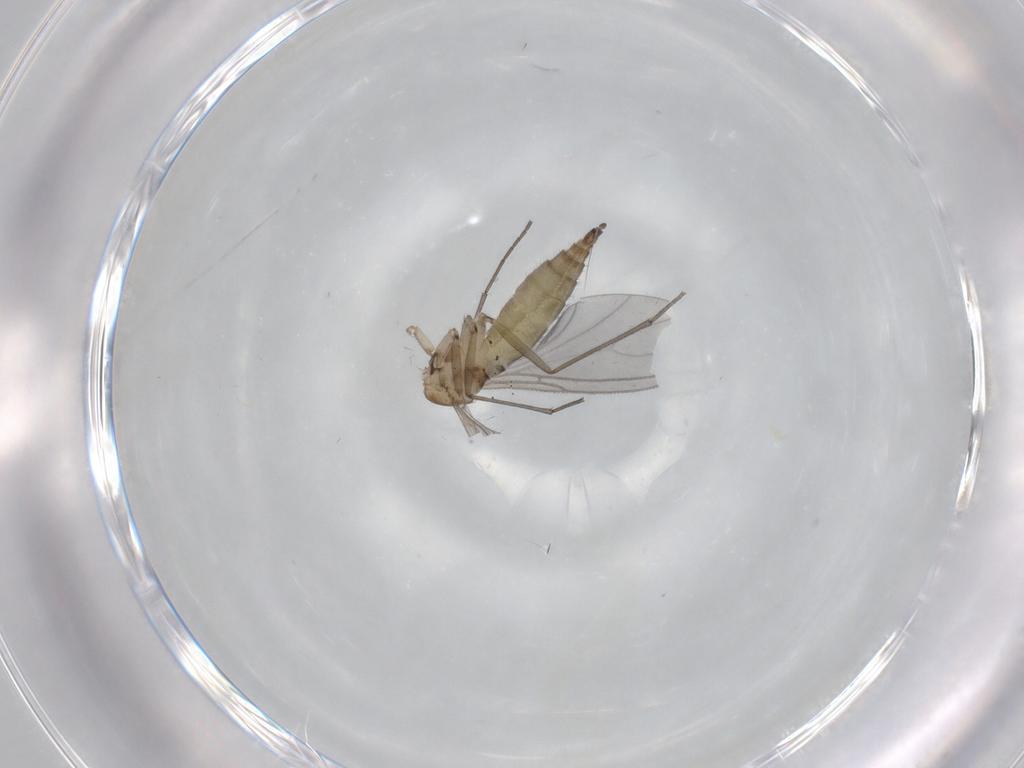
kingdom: Animalia
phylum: Arthropoda
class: Insecta
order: Diptera
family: Sciaridae
